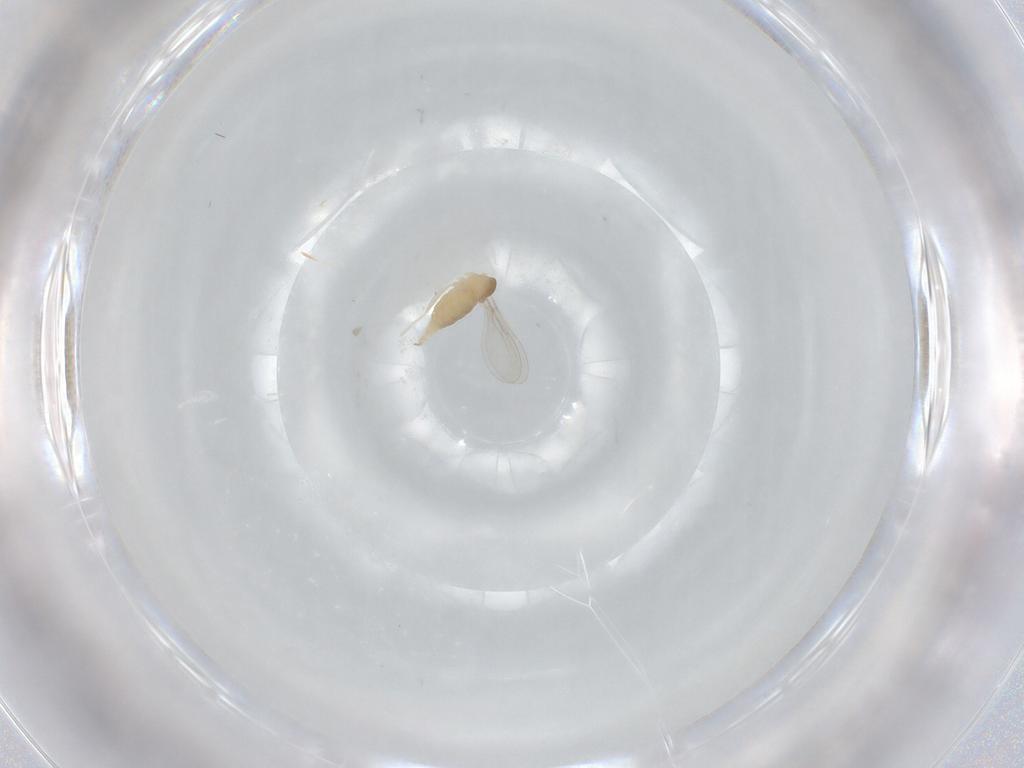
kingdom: Animalia
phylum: Arthropoda
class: Insecta
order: Diptera
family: Cecidomyiidae
